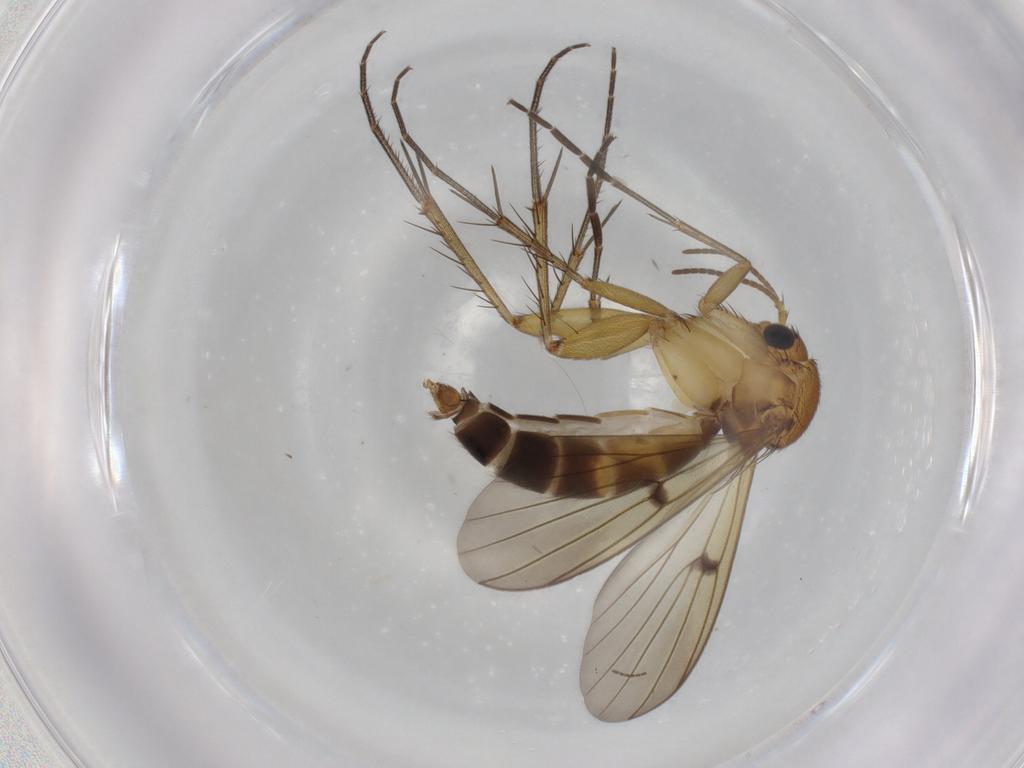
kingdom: Animalia
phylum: Arthropoda
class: Insecta
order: Diptera
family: Mycetophilidae
